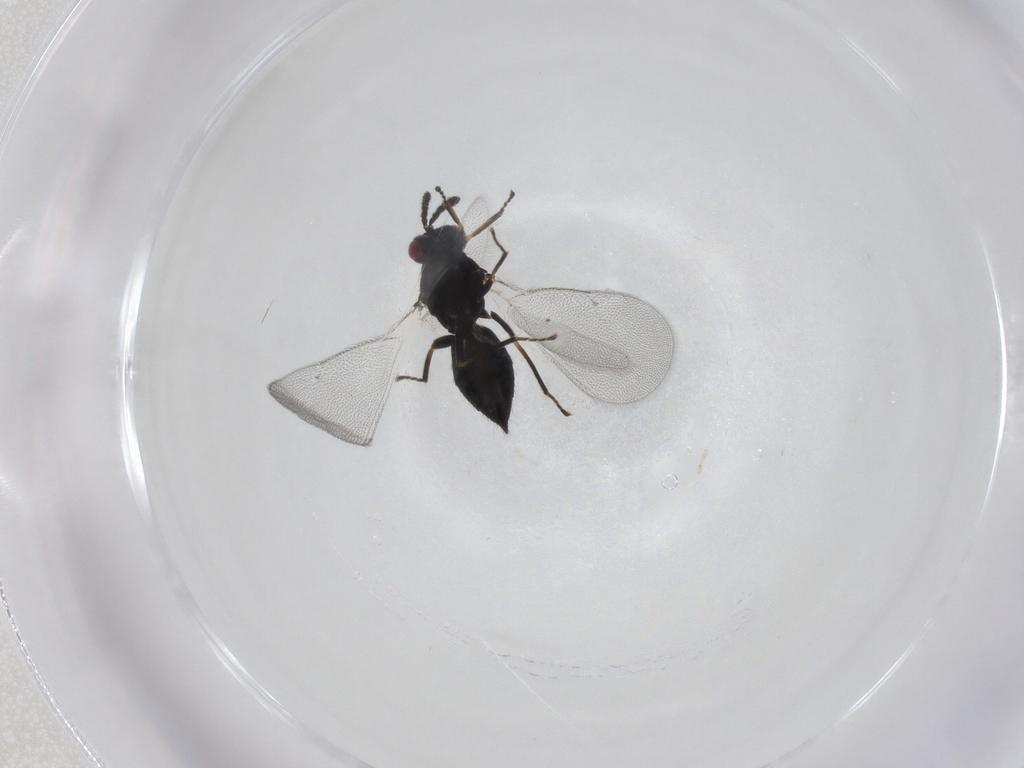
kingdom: Animalia
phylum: Arthropoda
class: Insecta
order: Hymenoptera
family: Eulophidae
